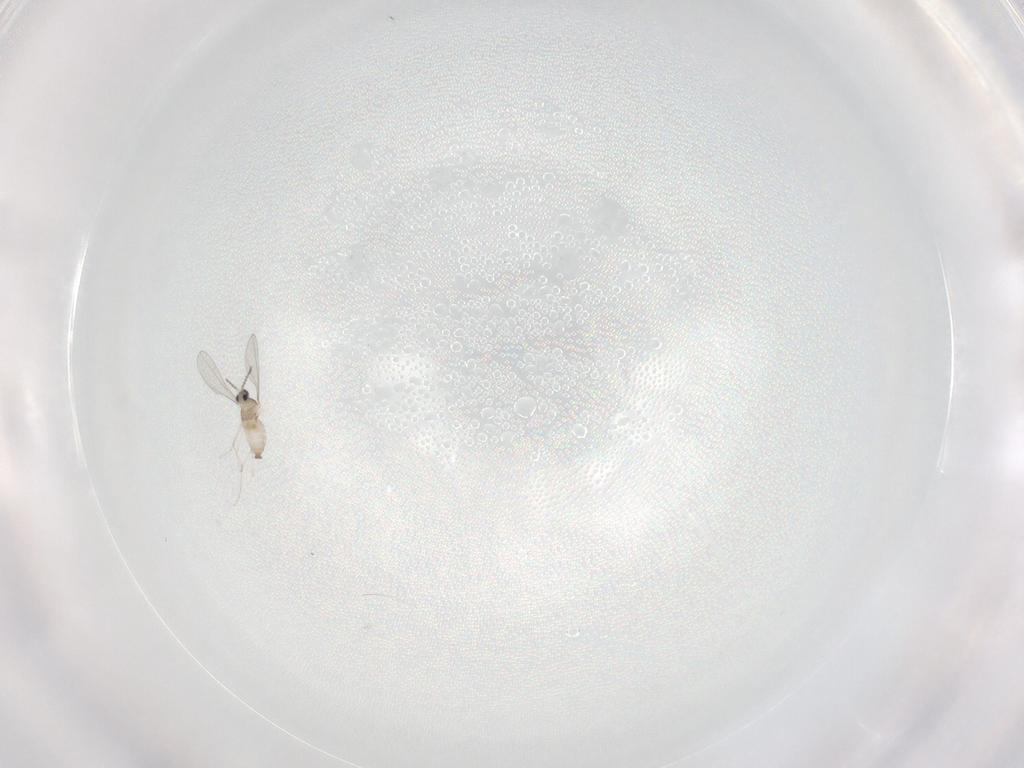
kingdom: Animalia
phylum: Arthropoda
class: Insecta
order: Diptera
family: Cecidomyiidae
